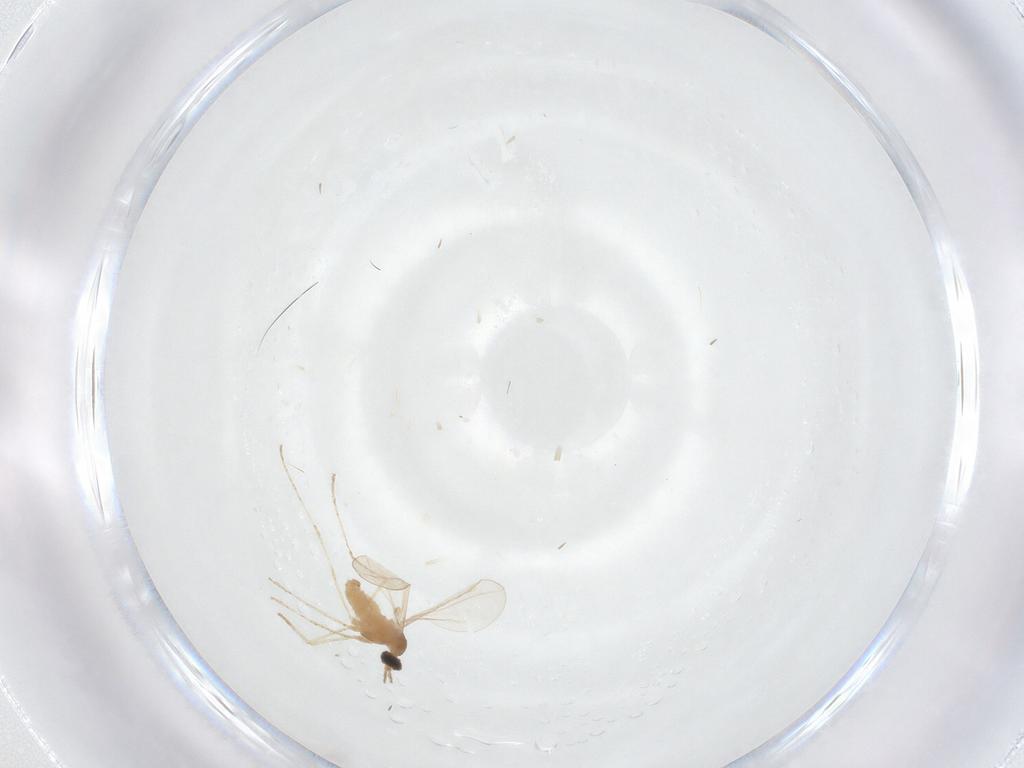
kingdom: Animalia
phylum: Arthropoda
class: Insecta
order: Diptera
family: Cecidomyiidae
